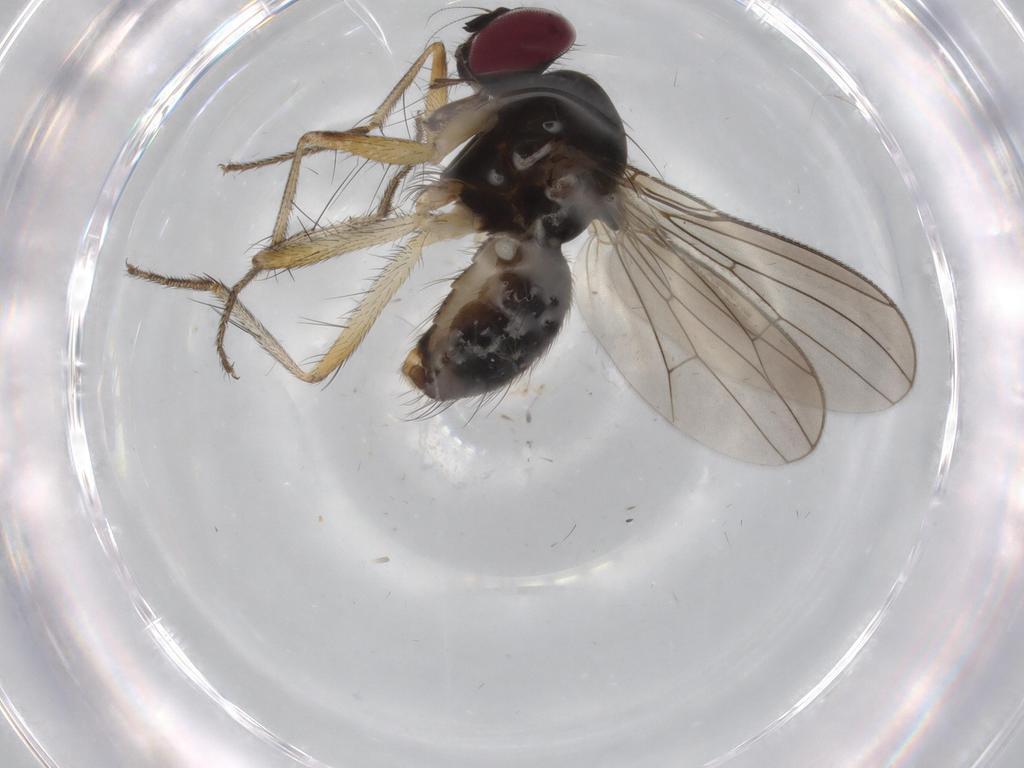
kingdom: Animalia
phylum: Arthropoda
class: Insecta
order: Diptera
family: Phoridae
